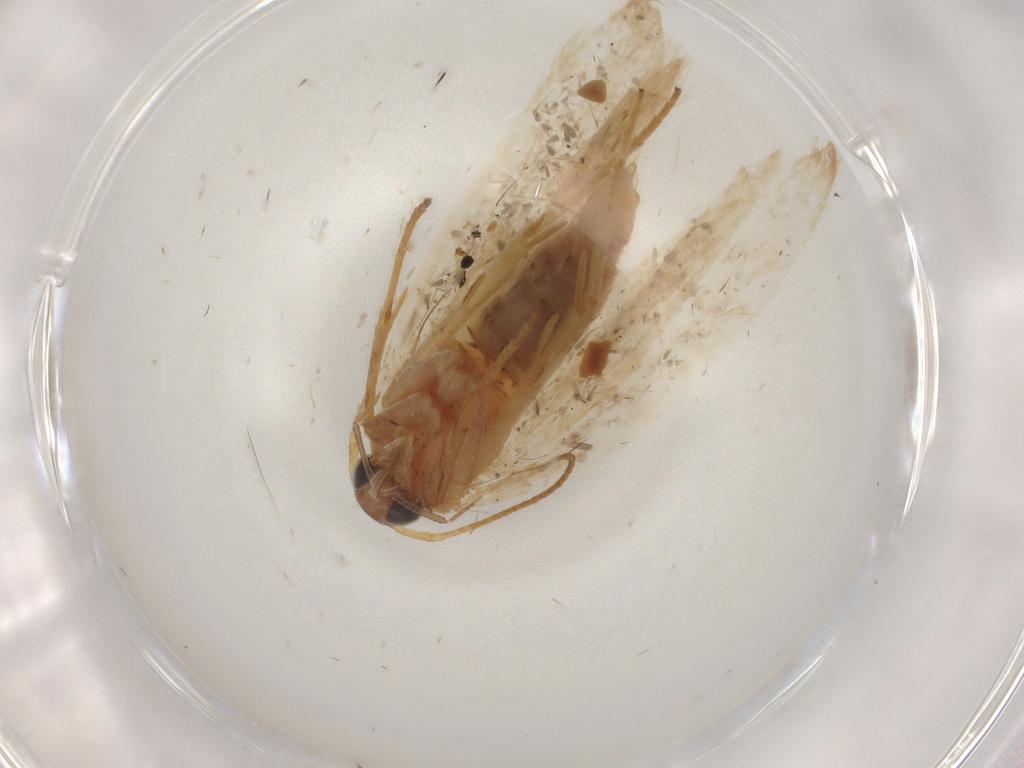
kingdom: Animalia
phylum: Arthropoda
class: Insecta
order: Lepidoptera
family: Gelechiidae
